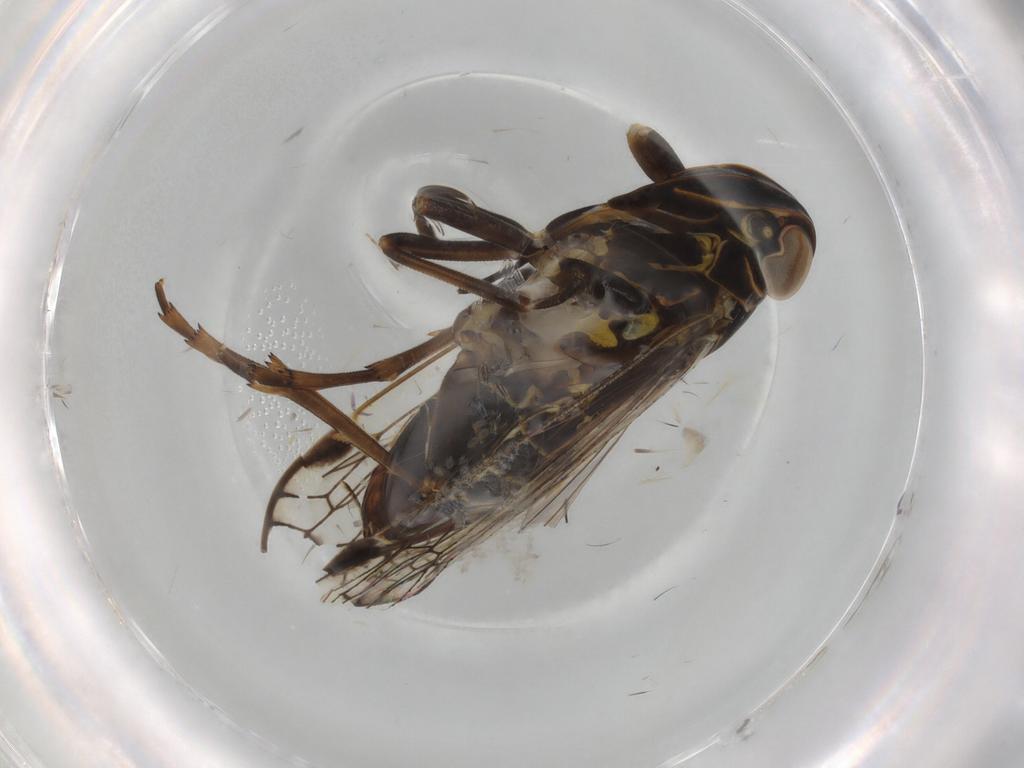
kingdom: Animalia
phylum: Arthropoda
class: Insecta
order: Hemiptera
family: Cixiidae
